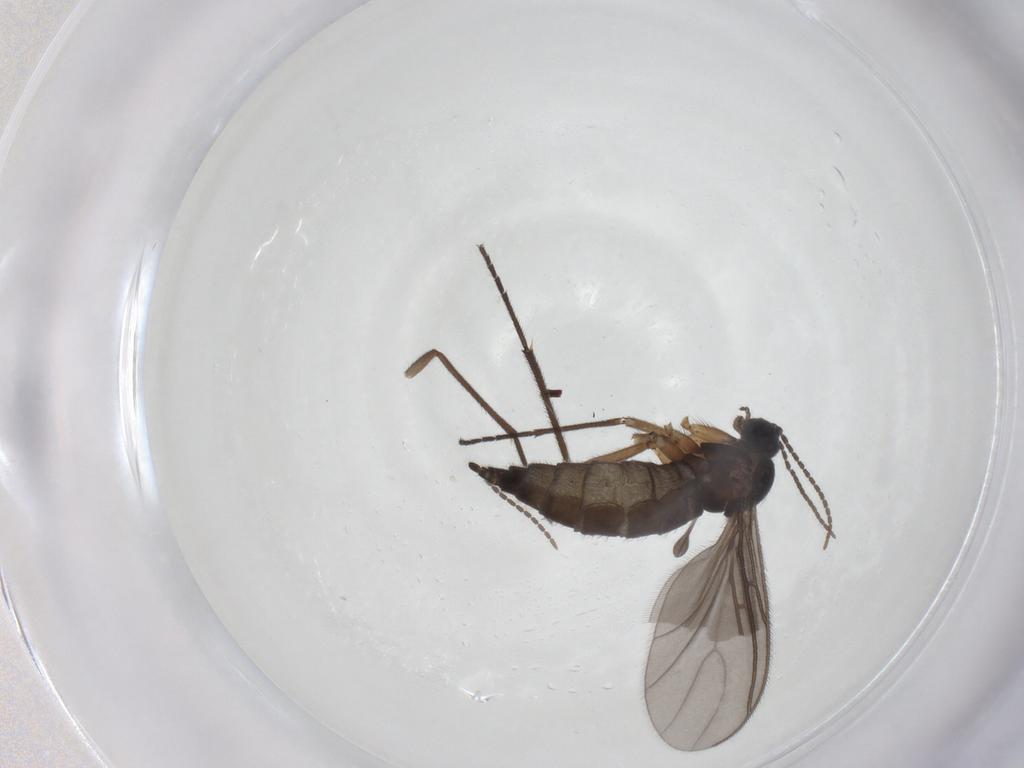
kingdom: Animalia
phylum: Arthropoda
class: Insecta
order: Diptera
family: Sciaridae
